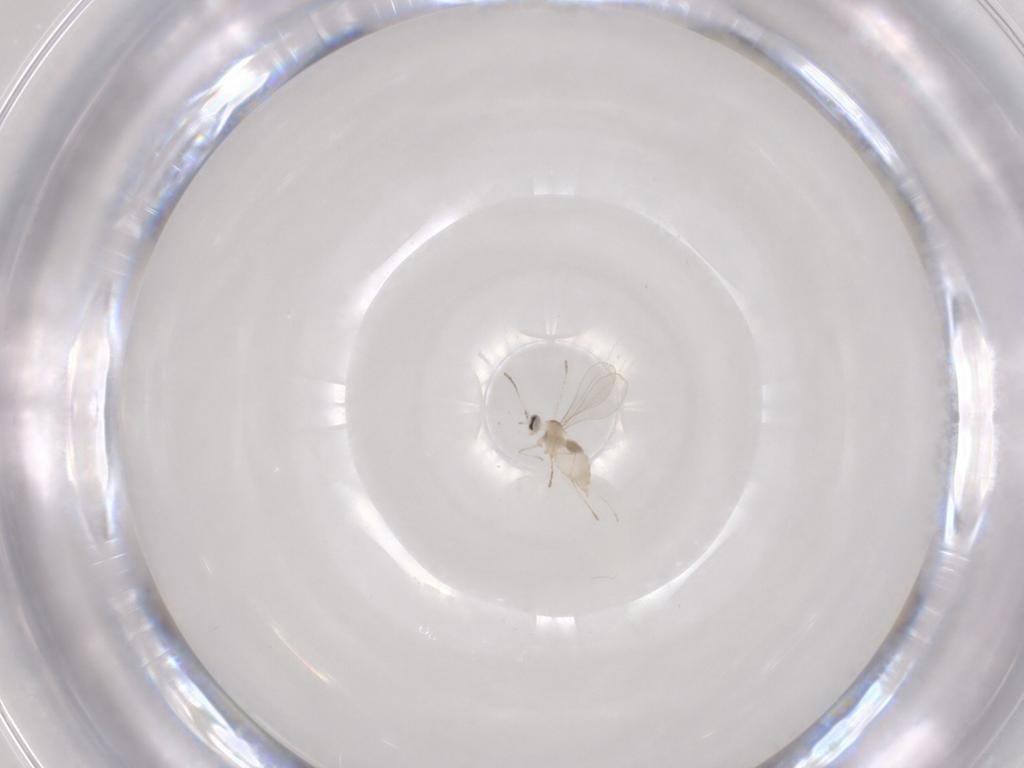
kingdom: Animalia
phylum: Arthropoda
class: Insecta
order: Diptera
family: Cecidomyiidae
